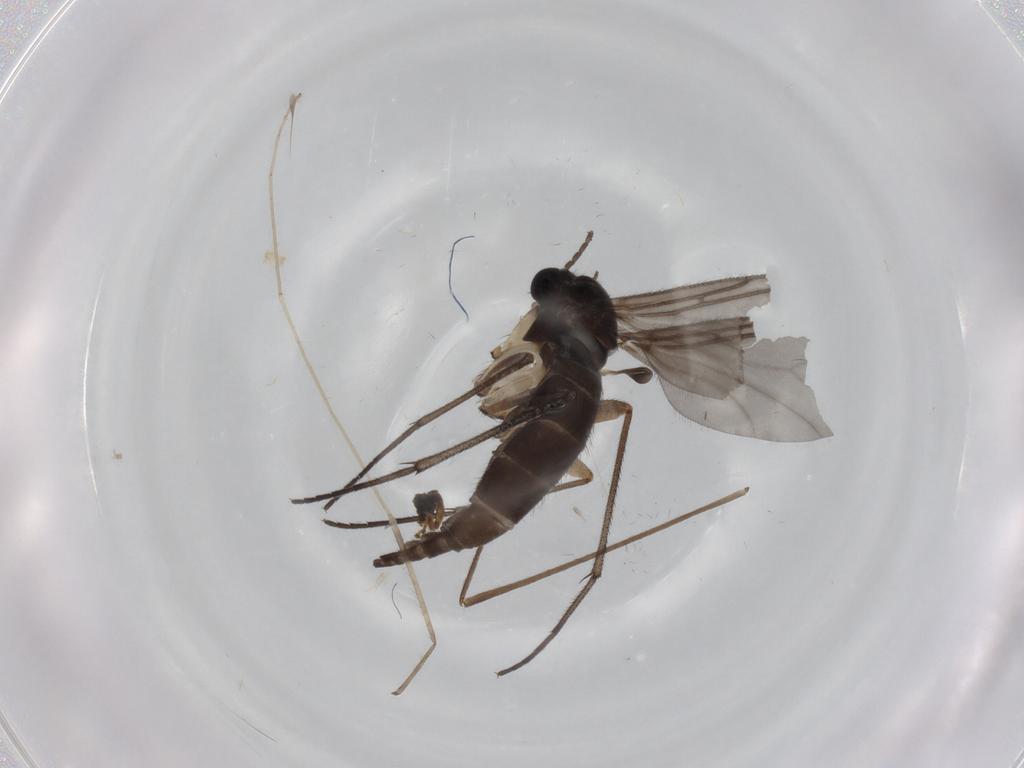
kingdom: Animalia
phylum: Arthropoda
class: Insecta
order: Diptera
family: Sciaridae
